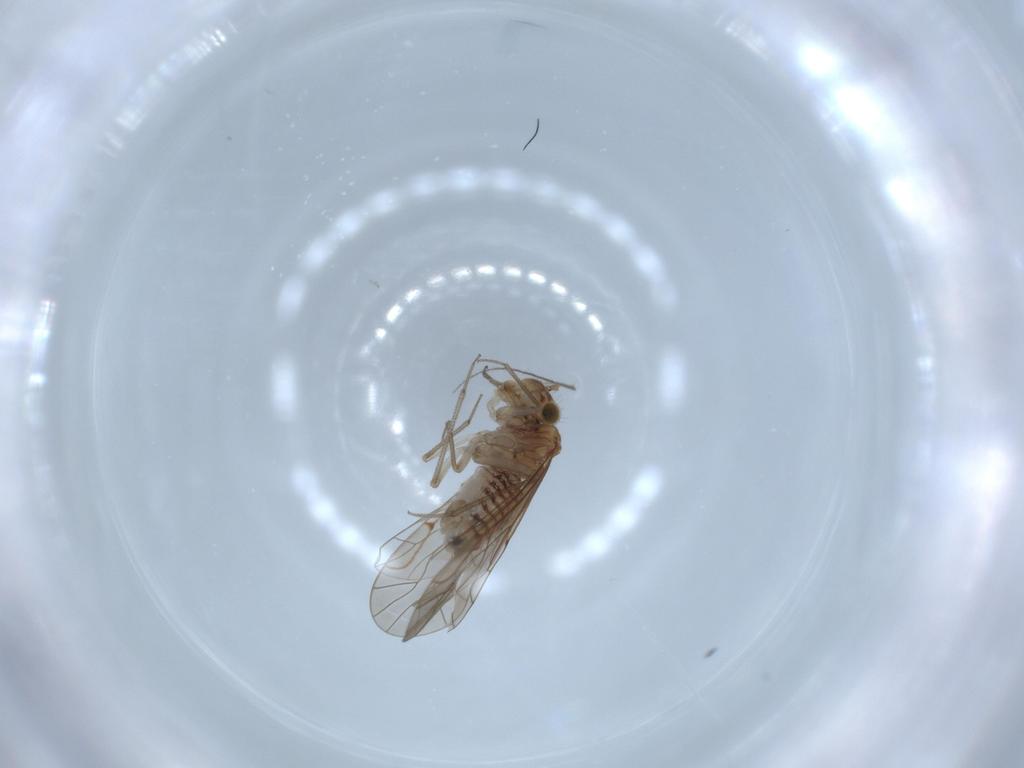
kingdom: Animalia
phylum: Arthropoda
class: Insecta
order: Psocodea
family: Lachesillidae
